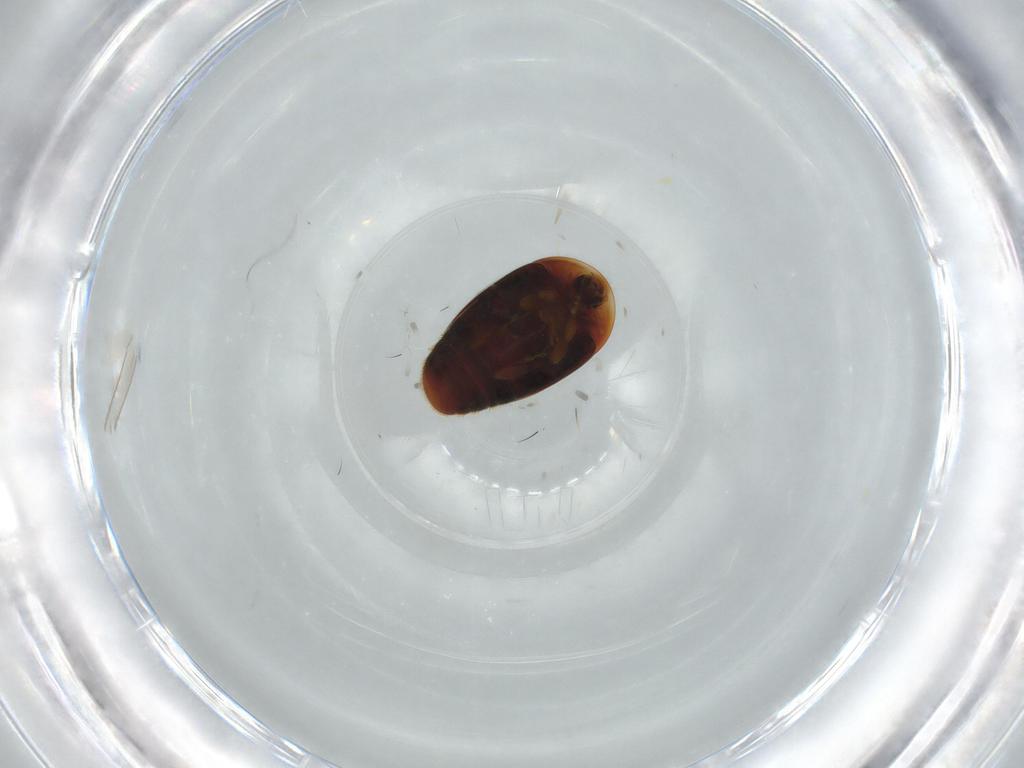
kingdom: Animalia
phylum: Arthropoda
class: Insecta
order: Coleoptera
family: Corylophidae
